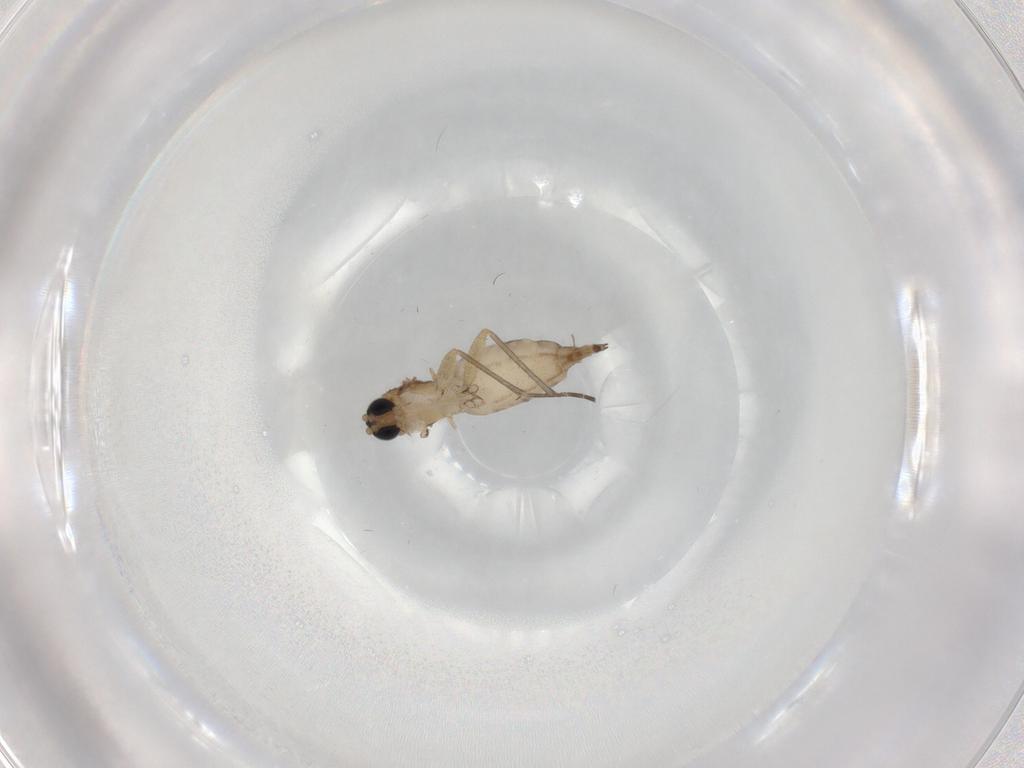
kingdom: Animalia
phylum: Arthropoda
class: Insecta
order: Diptera
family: Sciaridae
